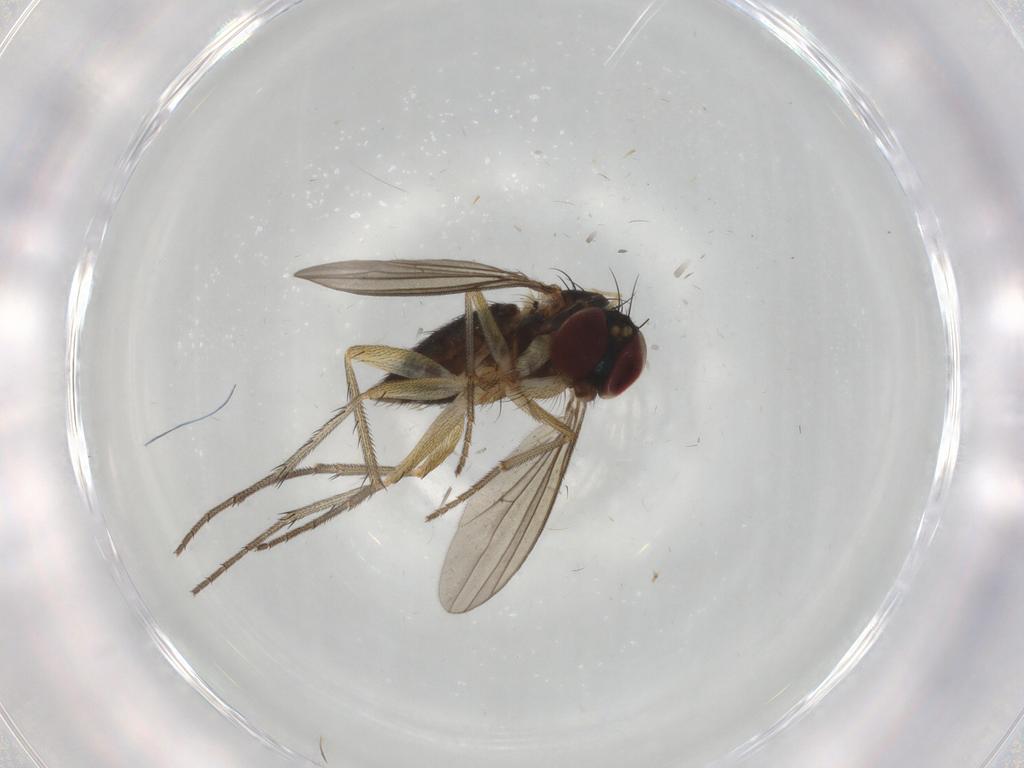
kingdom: Animalia
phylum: Arthropoda
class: Insecta
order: Diptera
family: Dolichopodidae
